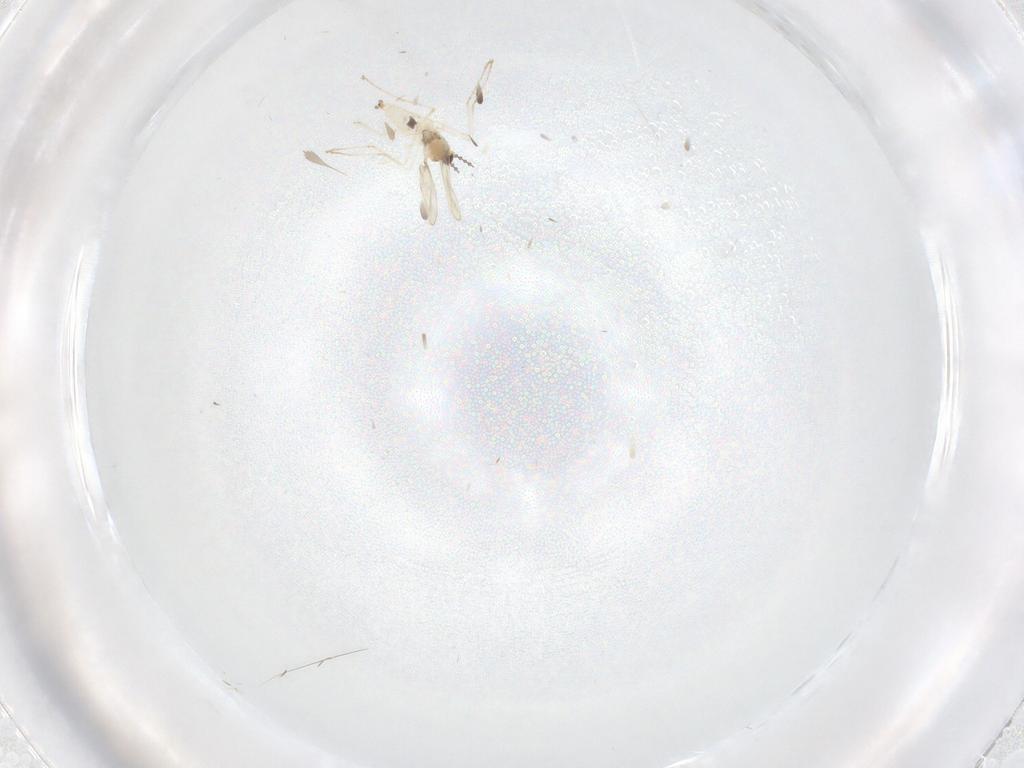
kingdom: Animalia
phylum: Arthropoda
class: Insecta
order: Diptera
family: Cecidomyiidae
